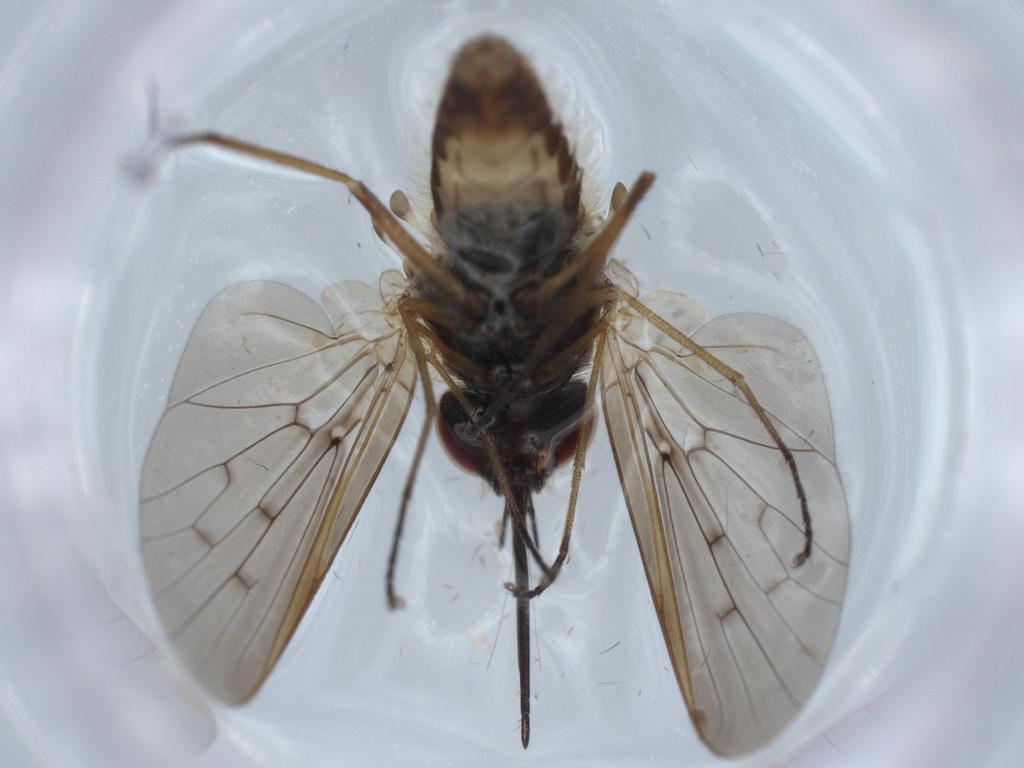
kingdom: Animalia
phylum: Arthropoda
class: Insecta
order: Diptera
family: Bombyliidae
